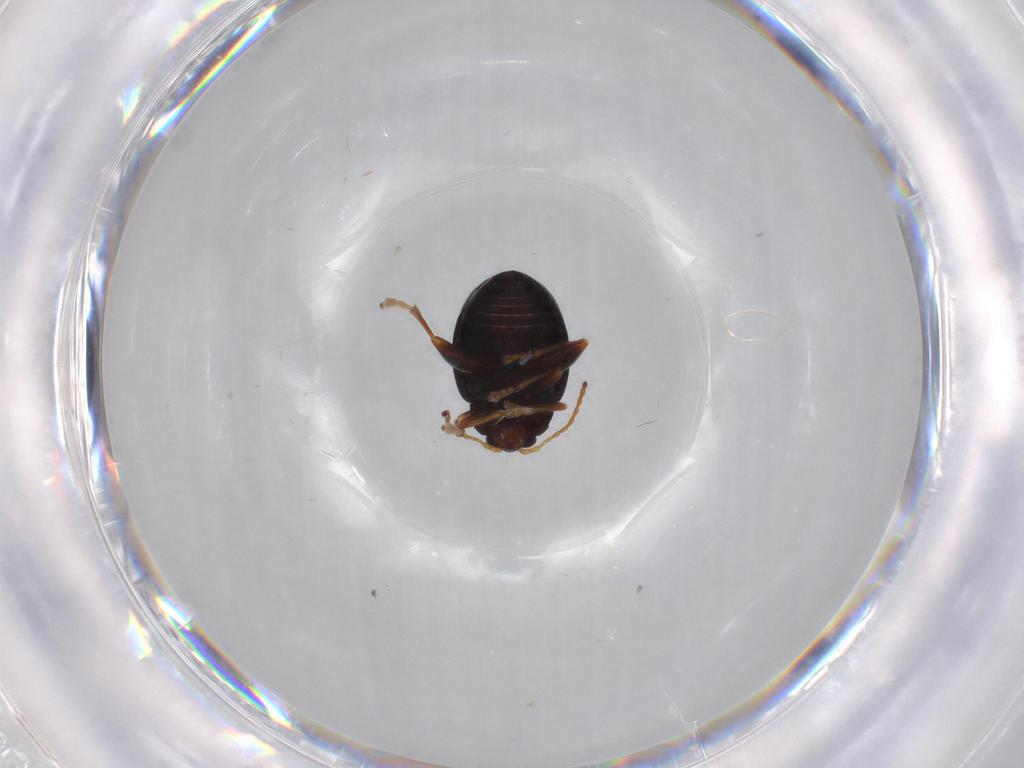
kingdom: Animalia
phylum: Arthropoda
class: Insecta
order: Coleoptera
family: Chrysomelidae
